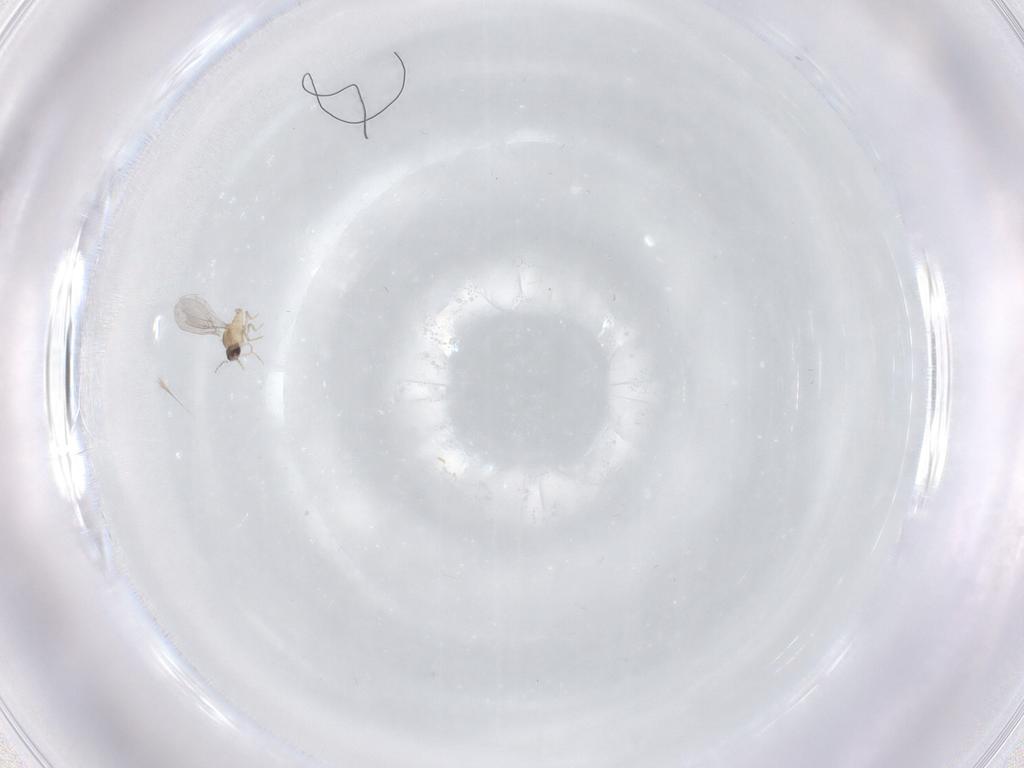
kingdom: Animalia
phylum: Arthropoda
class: Insecta
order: Diptera
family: Cecidomyiidae
